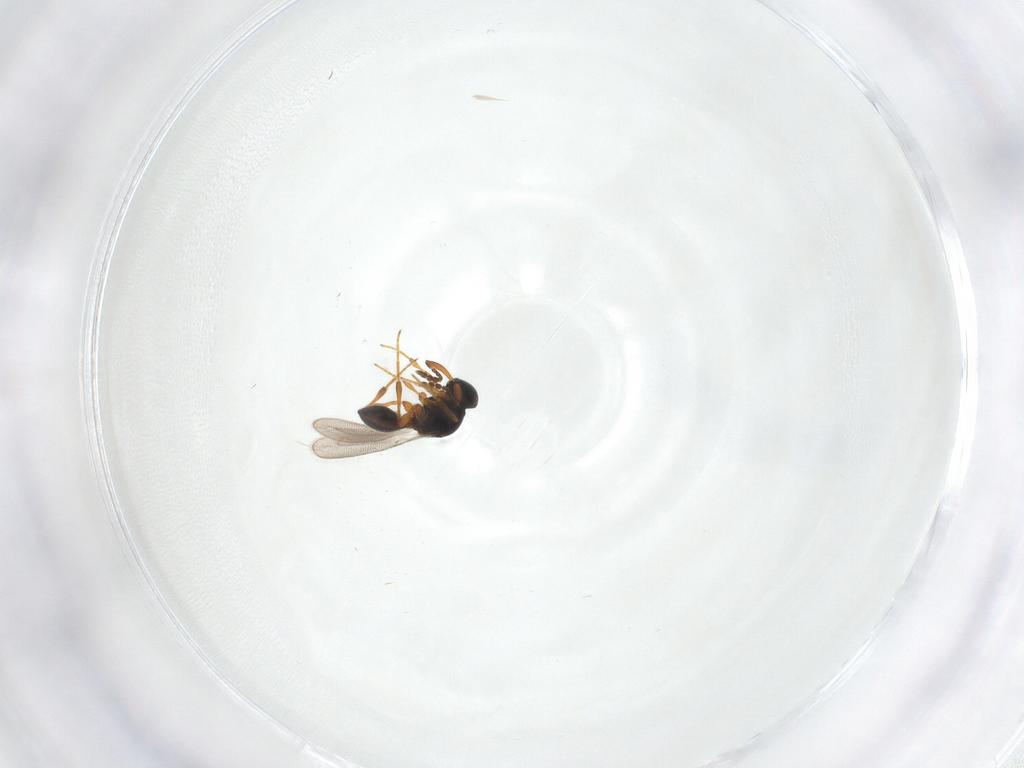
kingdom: Animalia
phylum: Arthropoda
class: Insecta
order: Hymenoptera
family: Platygastridae
